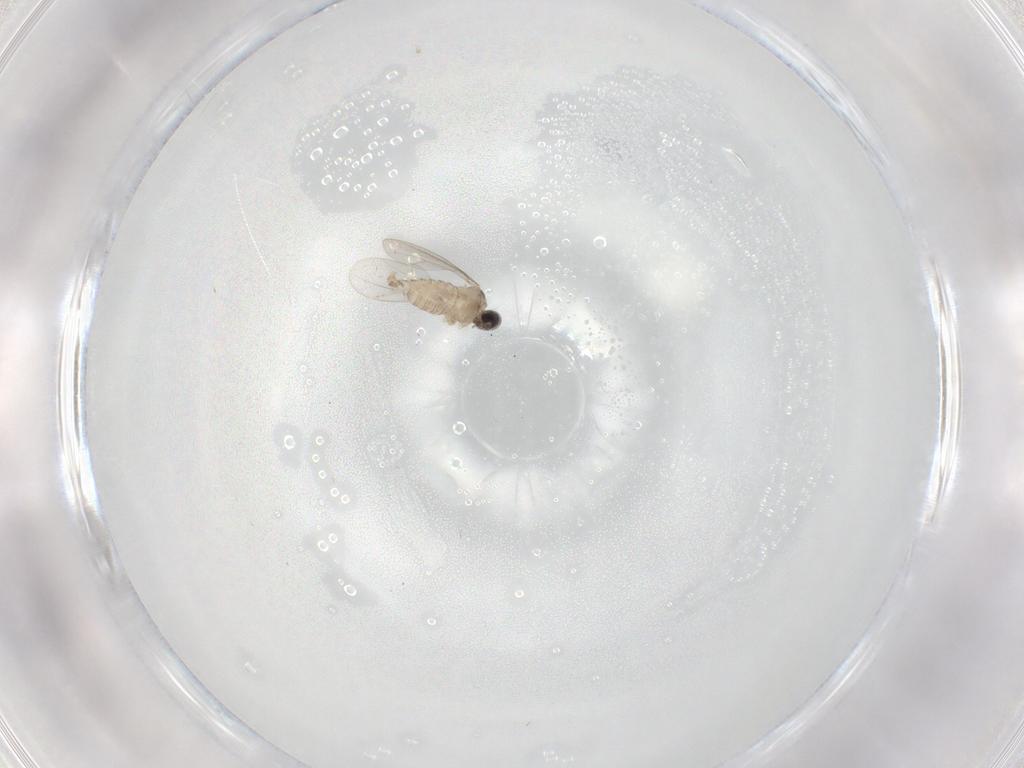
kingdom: Animalia
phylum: Arthropoda
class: Insecta
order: Diptera
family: Cecidomyiidae
